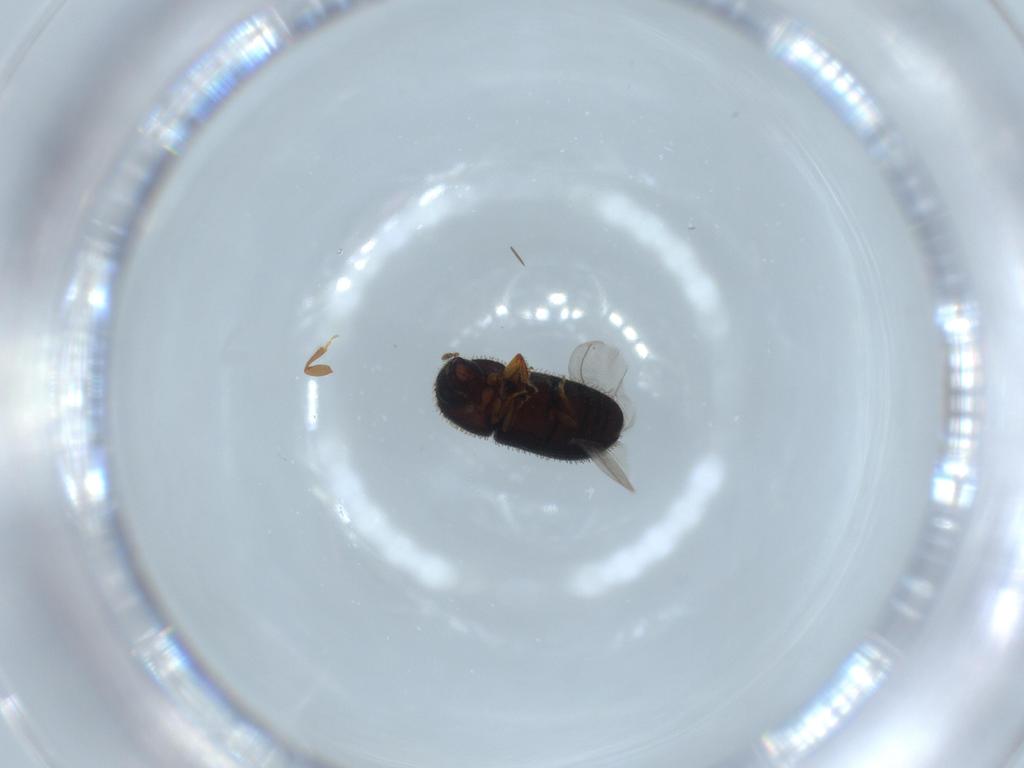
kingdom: Animalia
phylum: Arthropoda
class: Insecta
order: Coleoptera
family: Curculionidae
